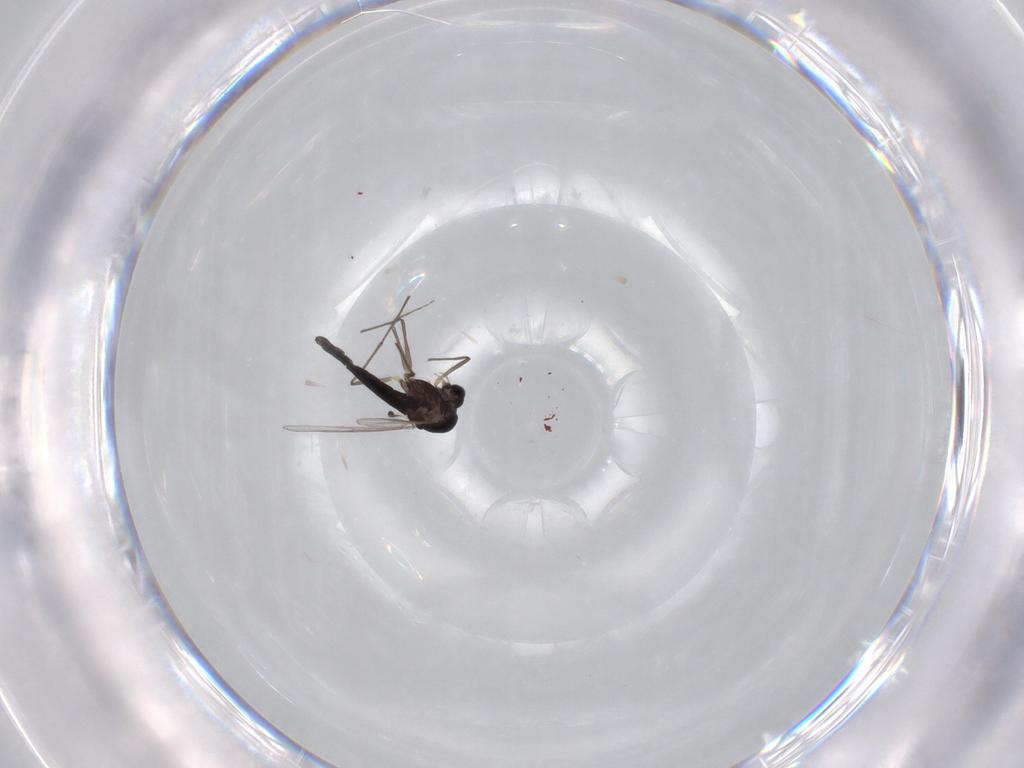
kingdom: Animalia
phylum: Arthropoda
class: Insecta
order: Diptera
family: Chironomidae
